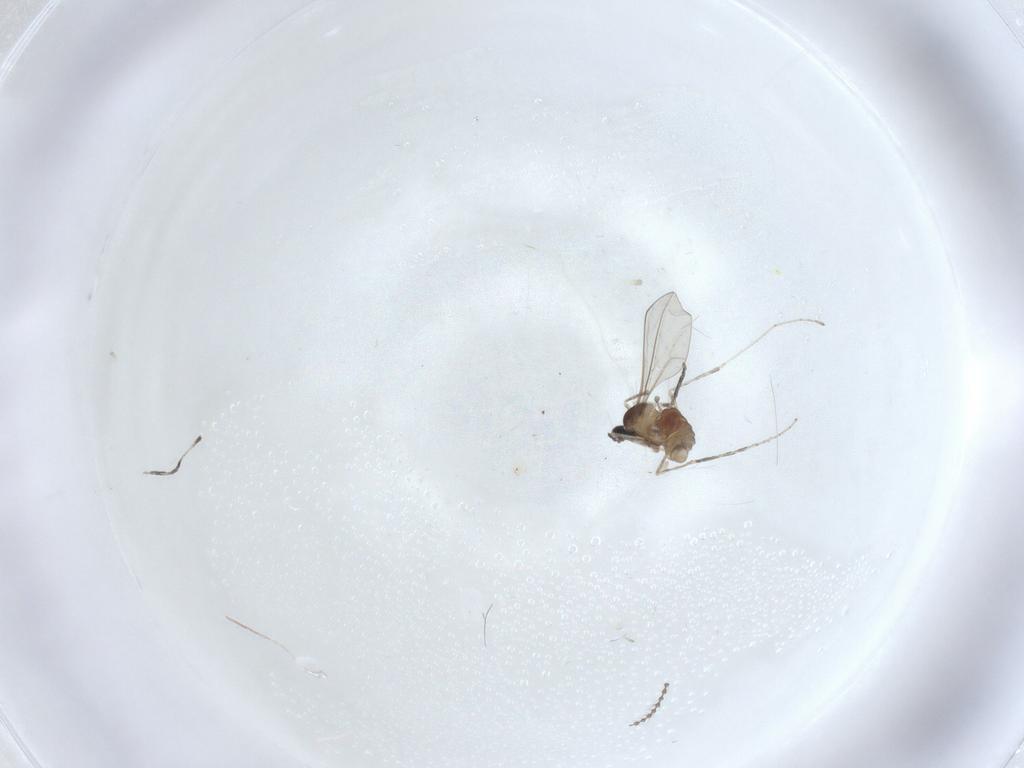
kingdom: Animalia
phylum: Arthropoda
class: Insecta
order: Diptera
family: Cecidomyiidae
